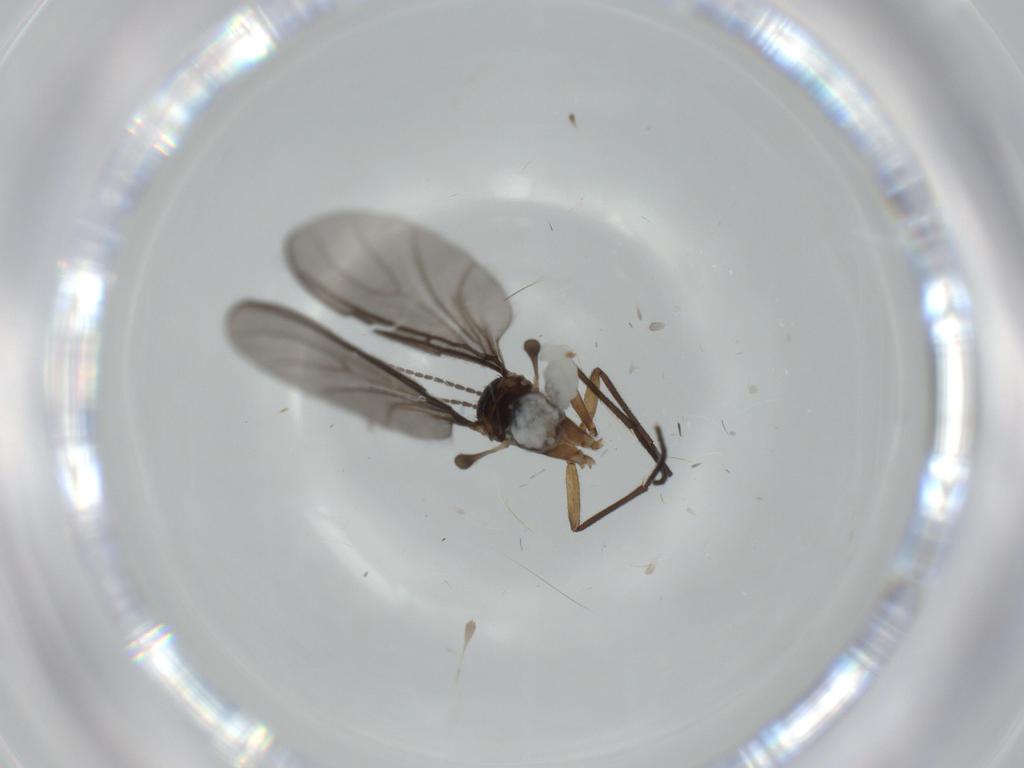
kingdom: Animalia
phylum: Arthropoda
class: Insecta
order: Diptera
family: Sciaridae
